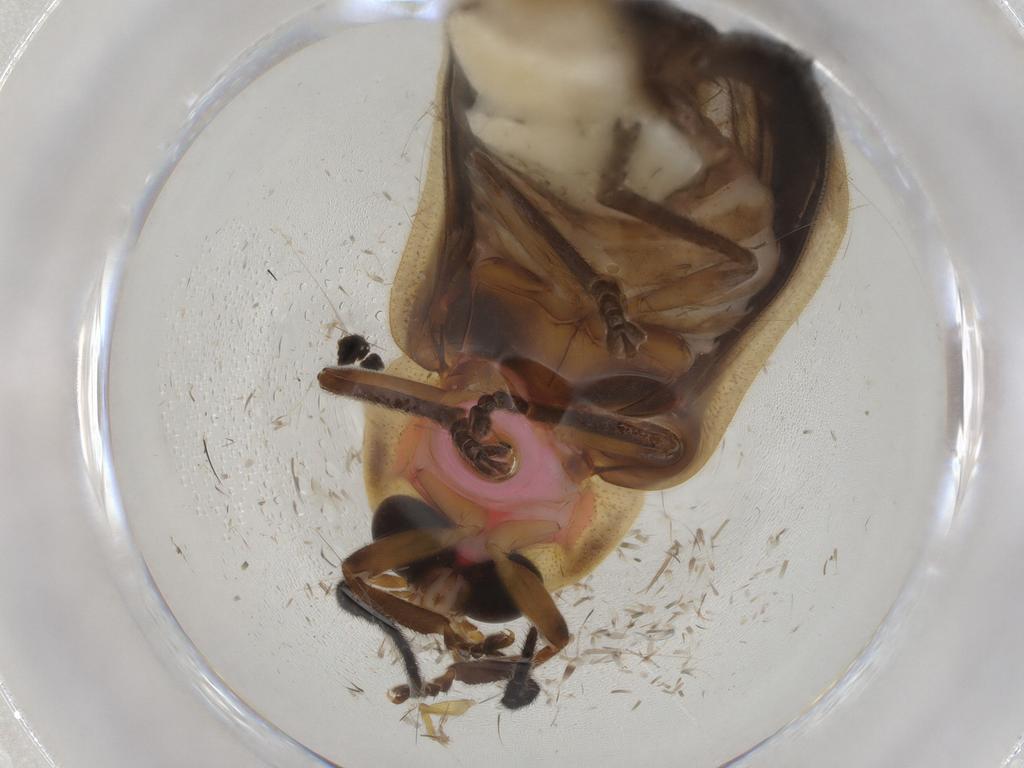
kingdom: Animalia
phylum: Arthropoda
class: Insecta
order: Coleoptera
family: Lampyridae
